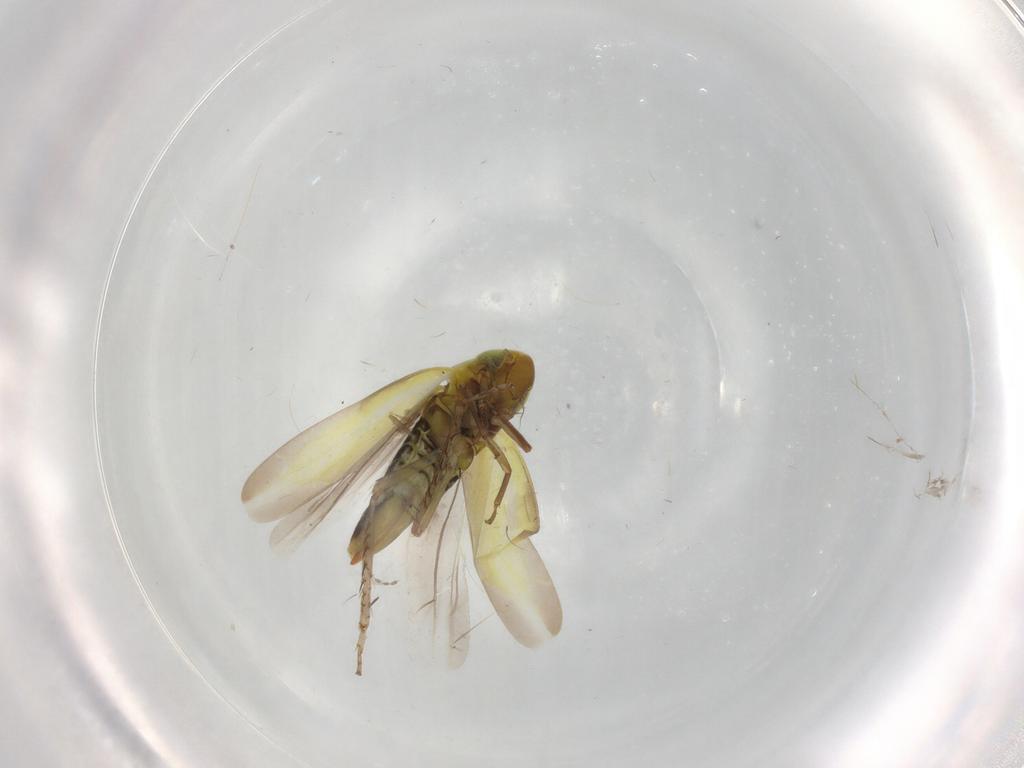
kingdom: Animalia
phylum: Arthropoda
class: Insecta
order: Hemiptera
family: Cicadellidae
